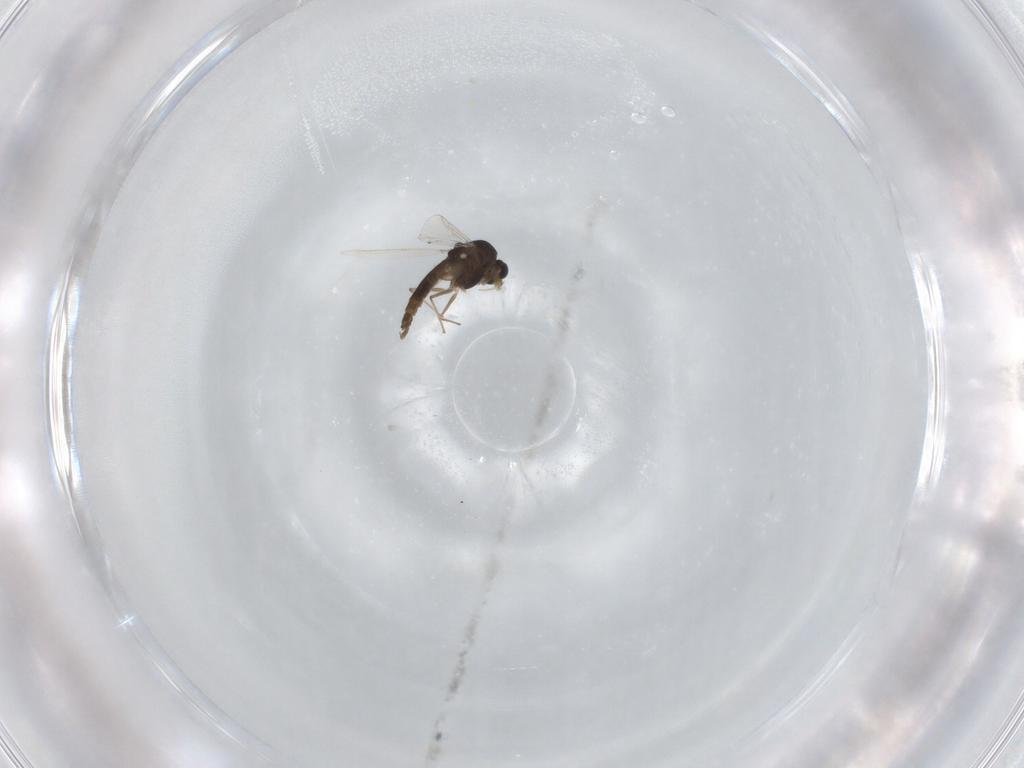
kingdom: Animalia
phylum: Arthropoda
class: Insecta
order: Diptera
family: Chironomidae
